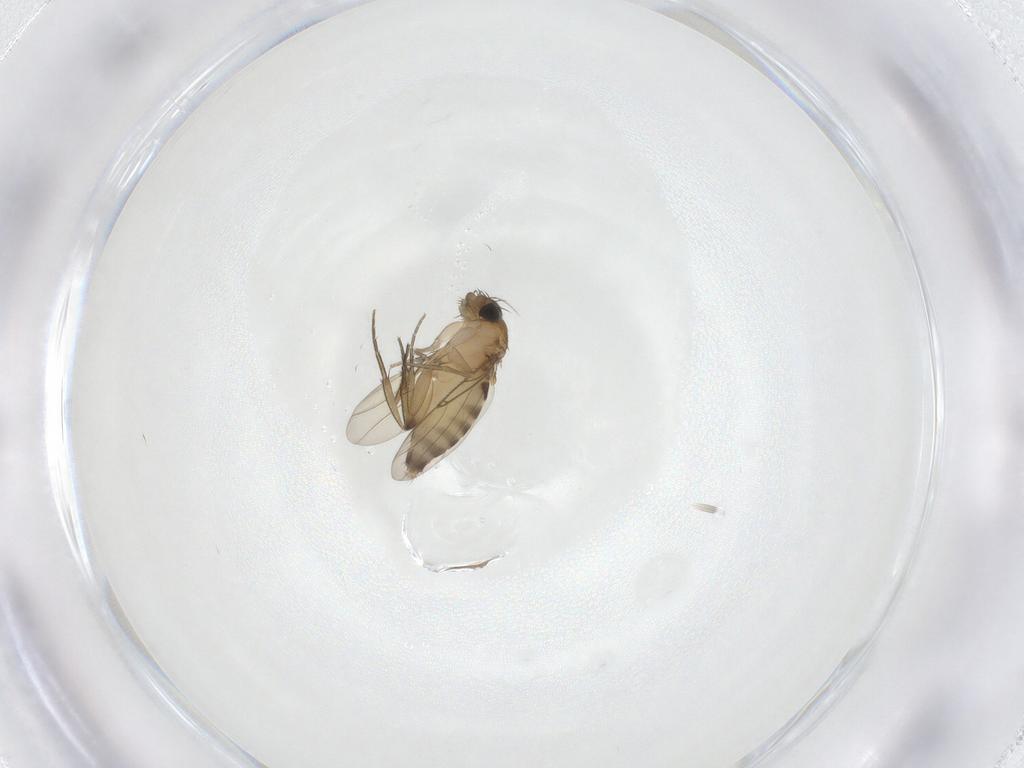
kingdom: Animalia
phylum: Arthropoda
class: Insecta
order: Diptera
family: Phoridae
